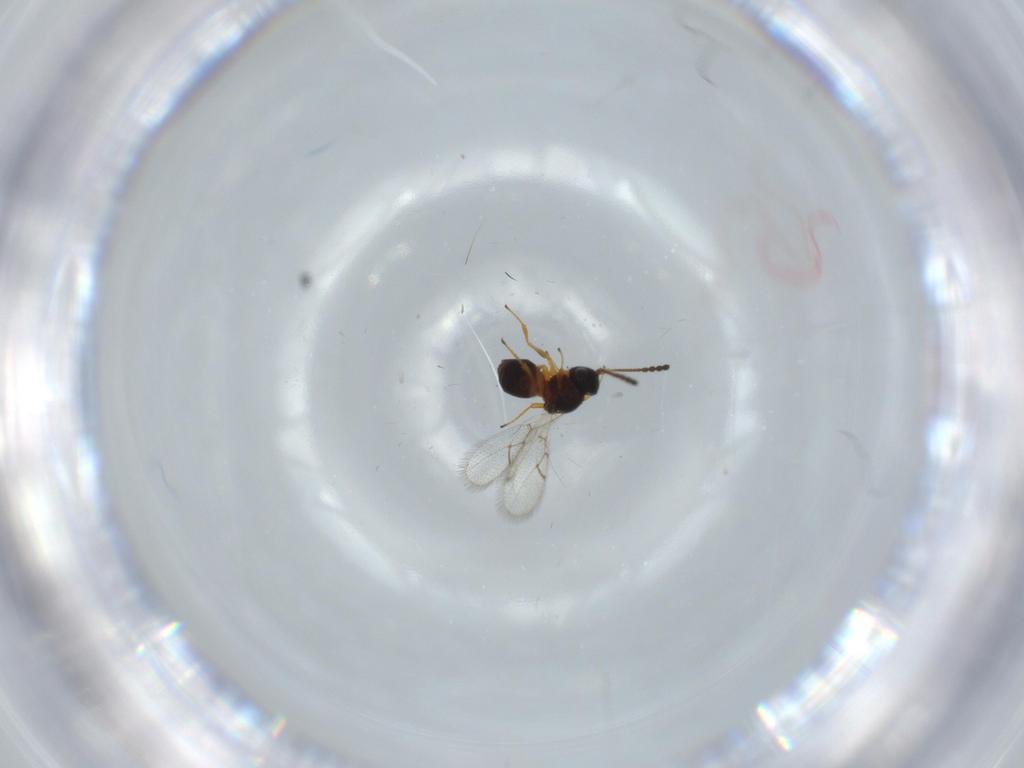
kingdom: Animalia
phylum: Arthropoda
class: Insecta
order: Hymenoptera
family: Figitidae
